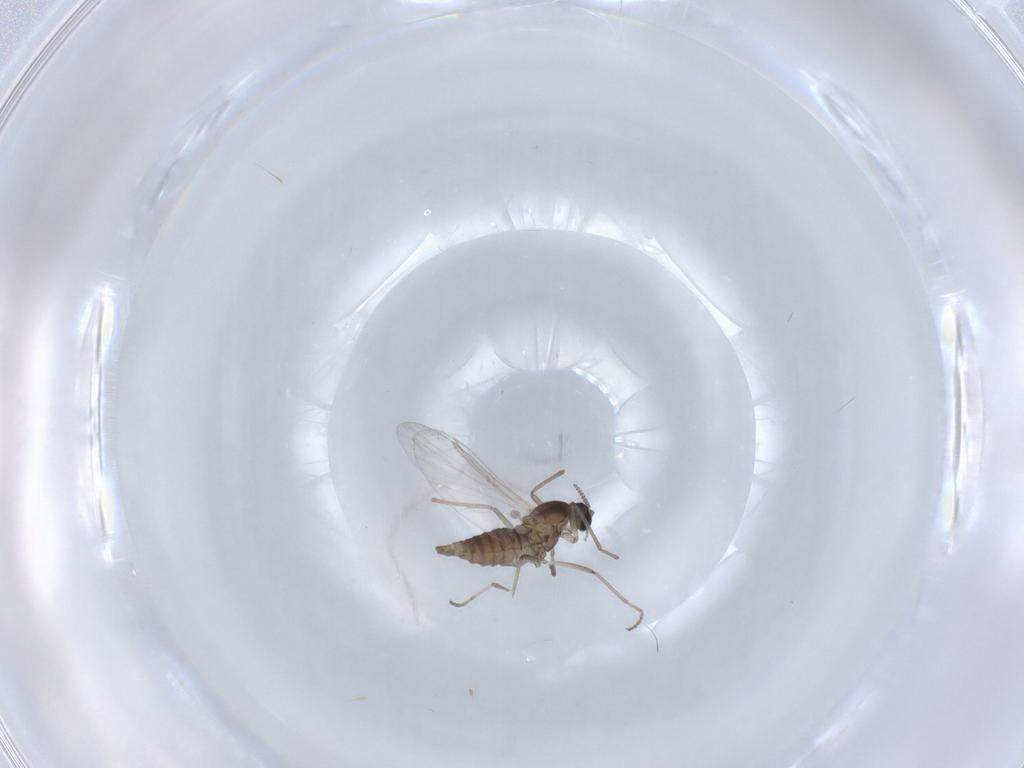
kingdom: Animalia
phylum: Arthropoda
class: Insecta
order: Diptera
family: Cecidomyiidae
